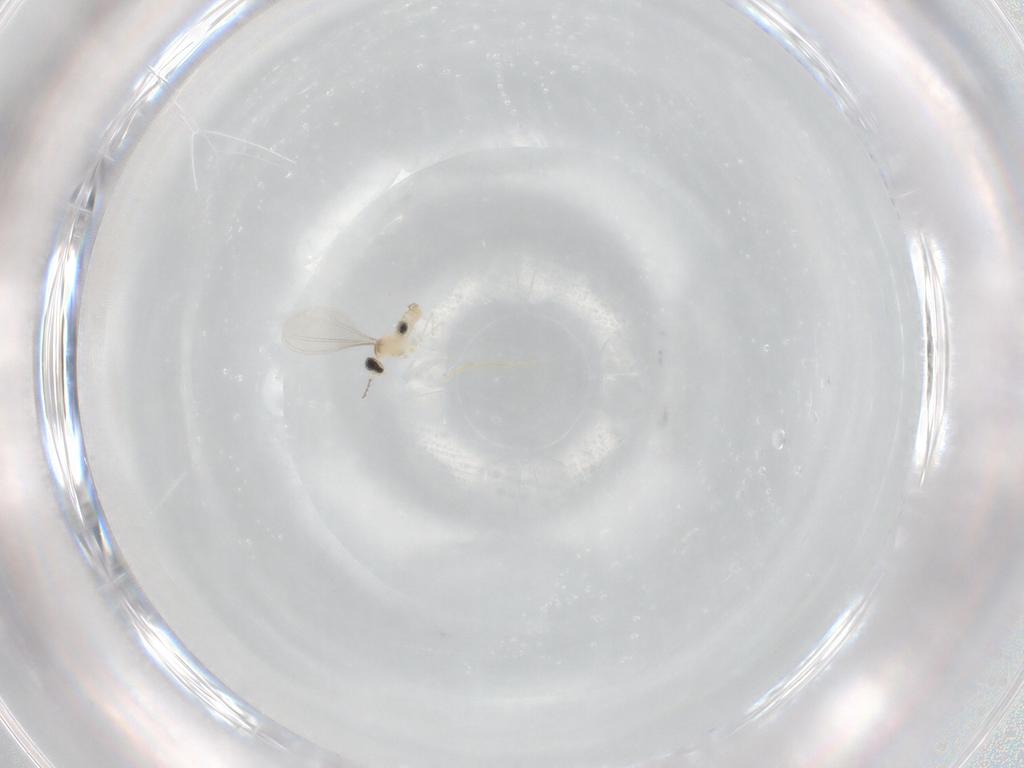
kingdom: Animalia
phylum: Arthropoda
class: Insecta
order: Diptera
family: Cecidomyiidae
